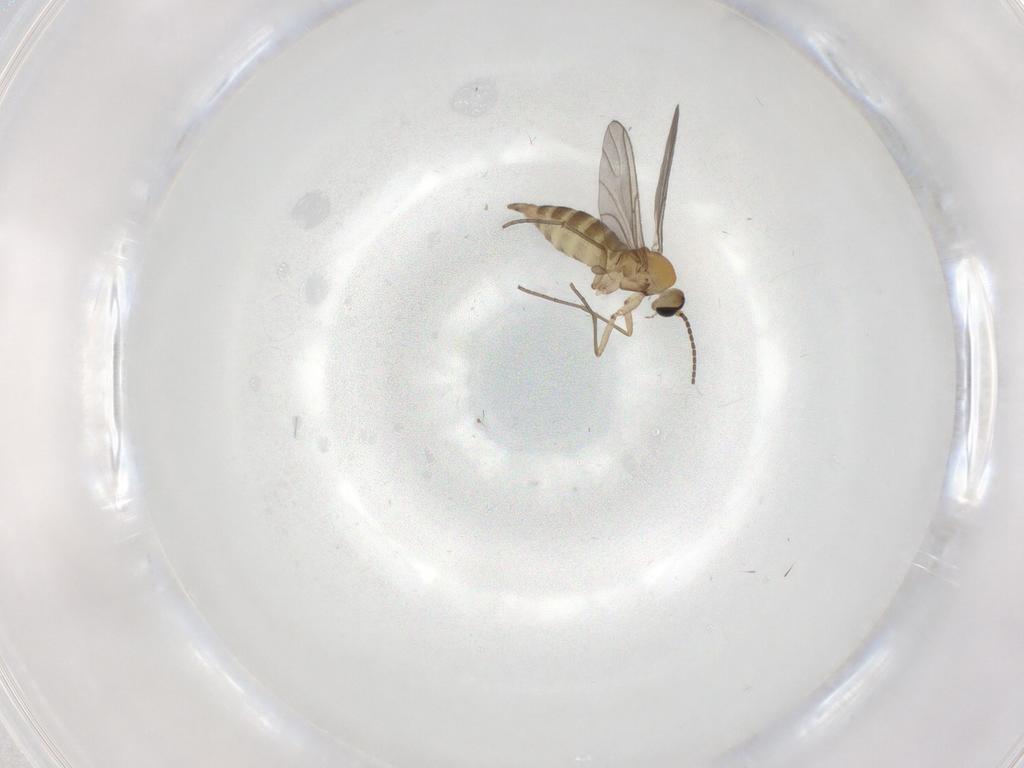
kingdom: Animalia
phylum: Arthropoda
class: Insecta
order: Diptera
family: Sciaridae
